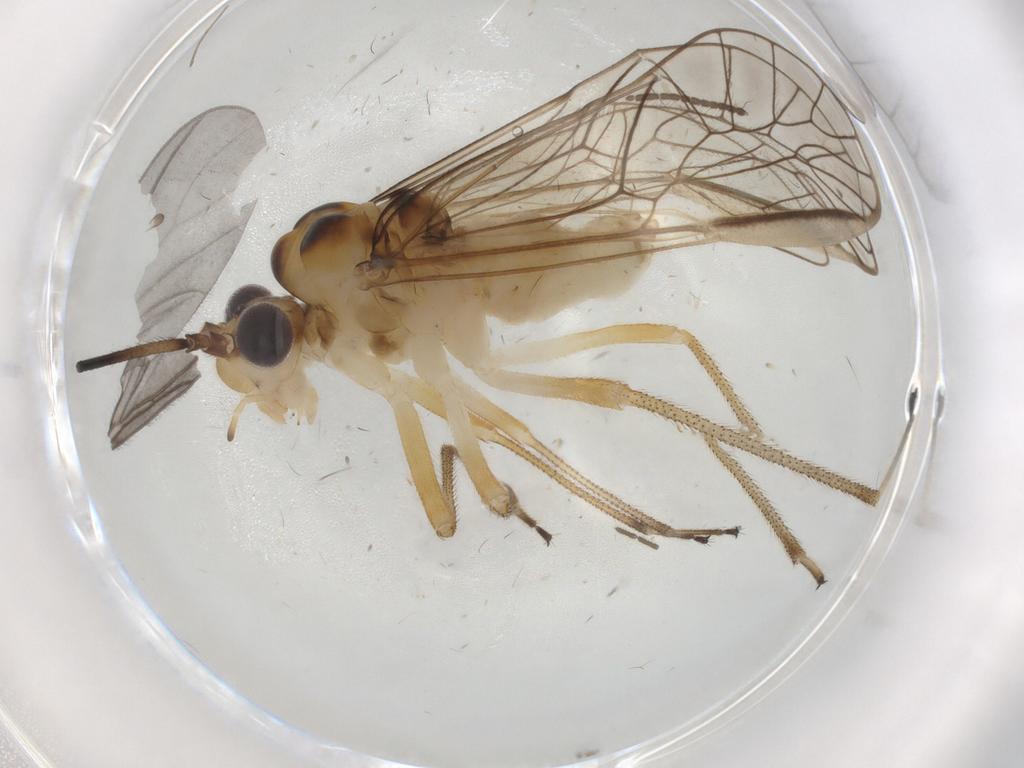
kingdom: Animalia
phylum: Arthropoda
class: Insecta
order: Psocodea
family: Amphipsocidae
